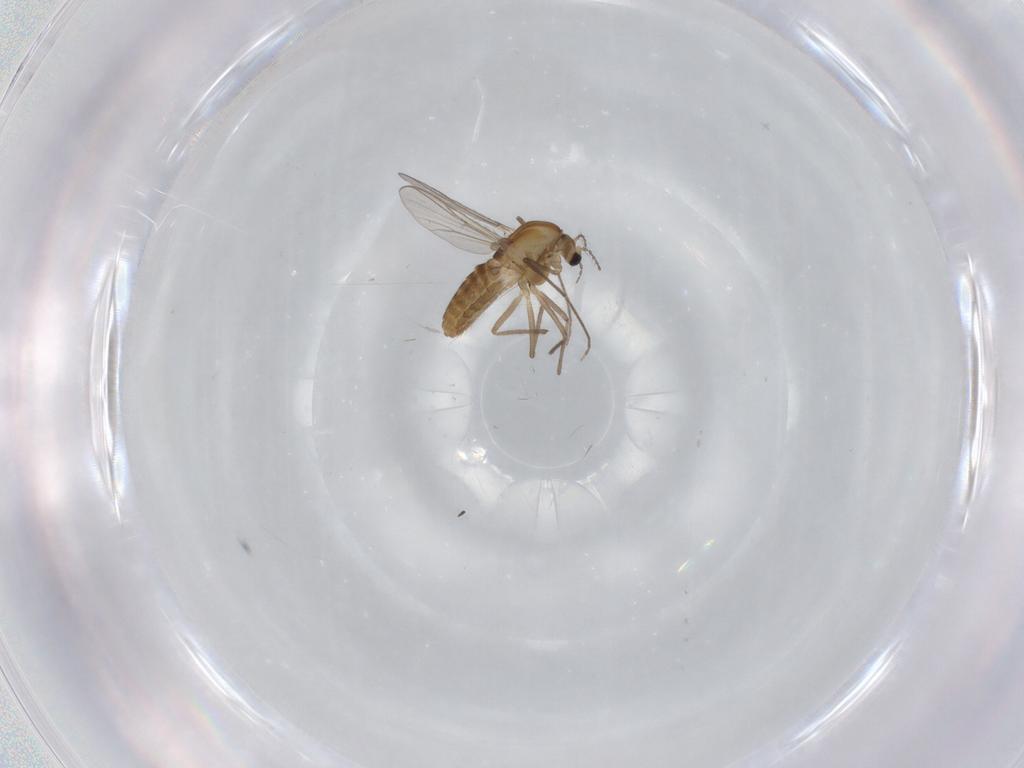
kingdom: Animalia
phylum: Arthropoda
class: Insecta
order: Diptera
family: Chironomidae
